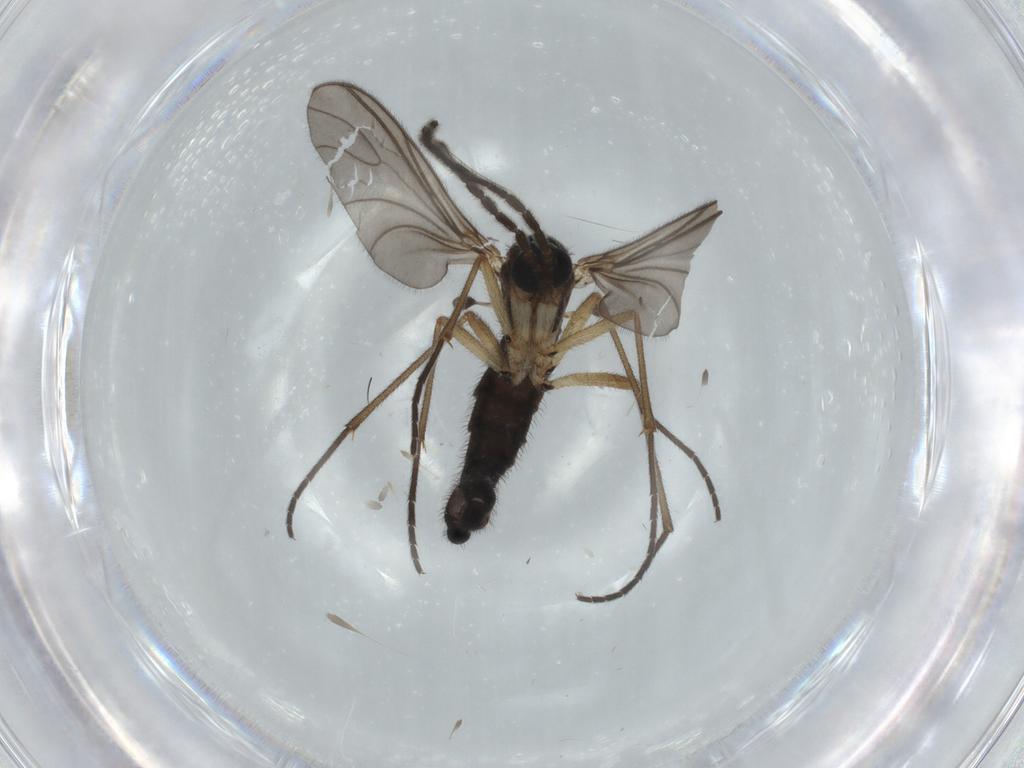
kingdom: Animalia
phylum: Arthropoda
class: Insecta
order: Diptera
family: Sciaridae
